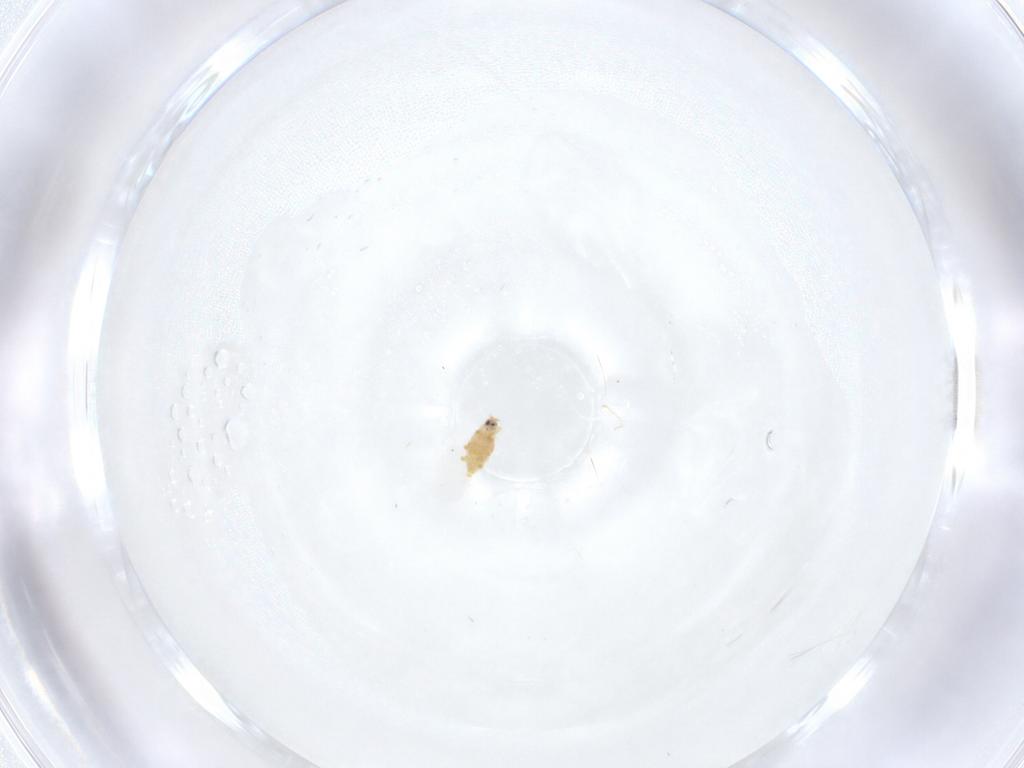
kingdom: Animalia
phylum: Arthropoda
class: Insecta
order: Hemiptera
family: Diaspididae
